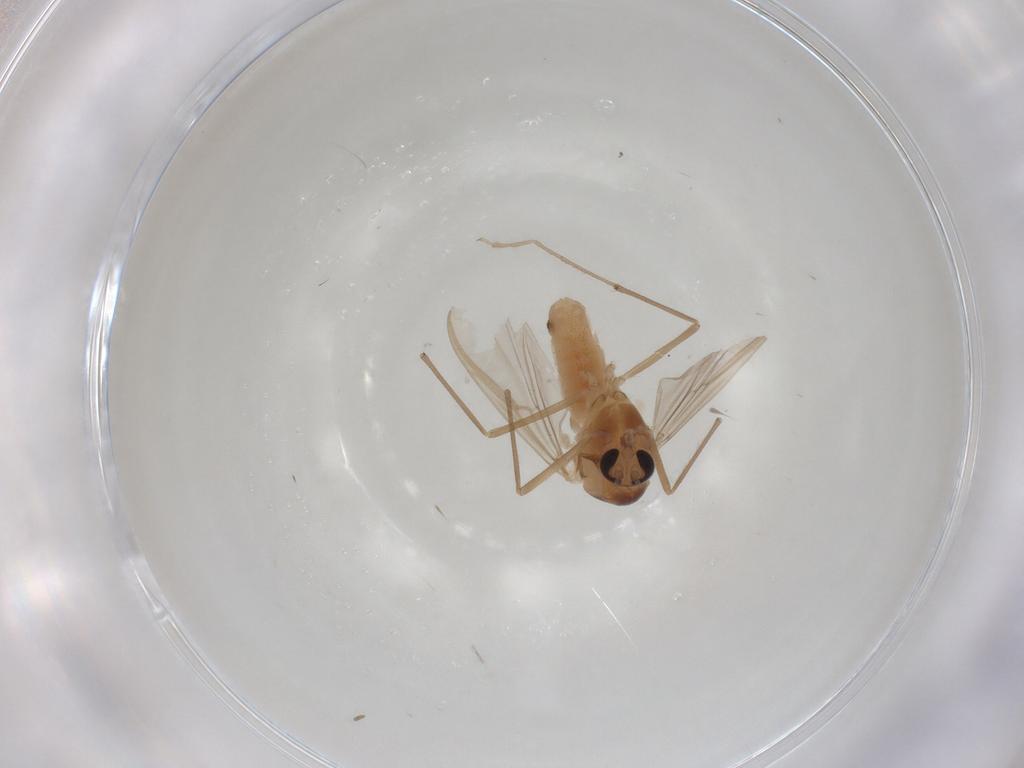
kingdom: Animalia
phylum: Arthropoda
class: Insecta
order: Diptera
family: Chironomidae
